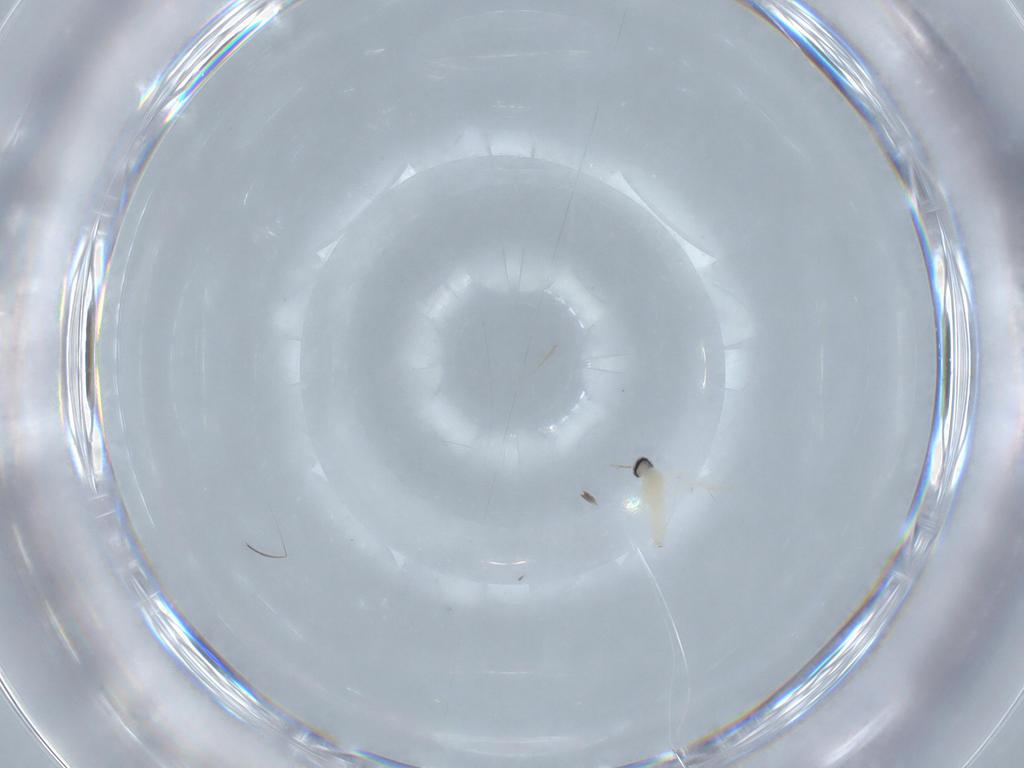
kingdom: Animalia
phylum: Arthropoda
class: Insecta
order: Diptera
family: Cecidomyiidae
